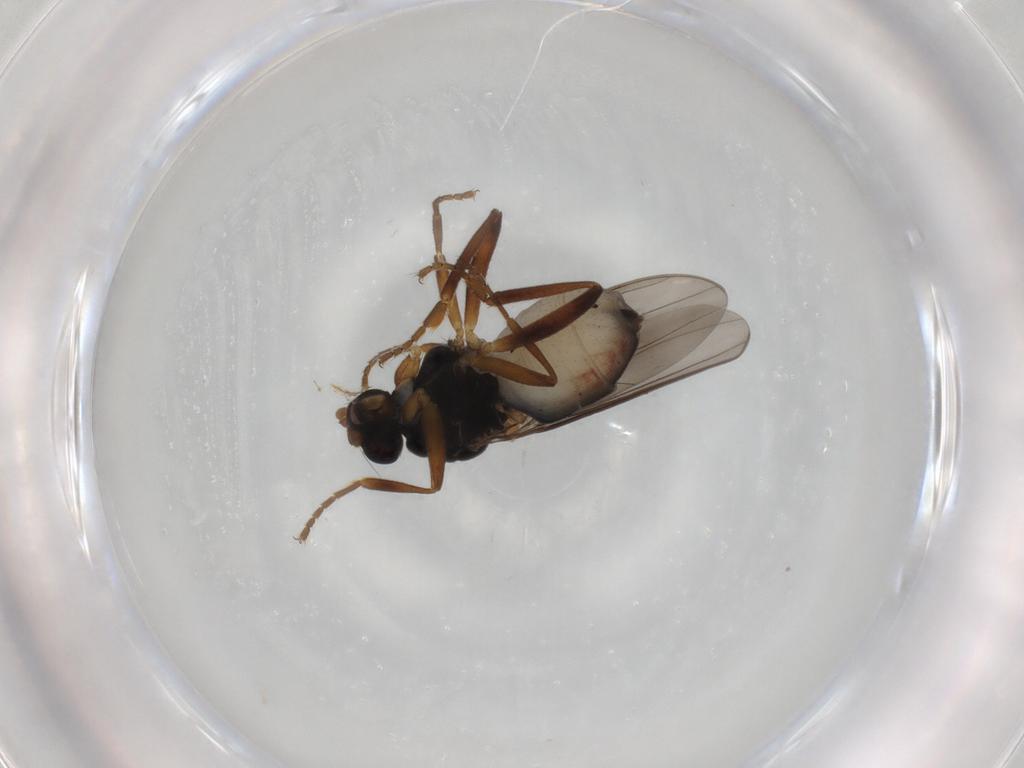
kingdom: Animalia
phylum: Arthropoda
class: Insecta
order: Diptera
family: Sphaeroceridae
